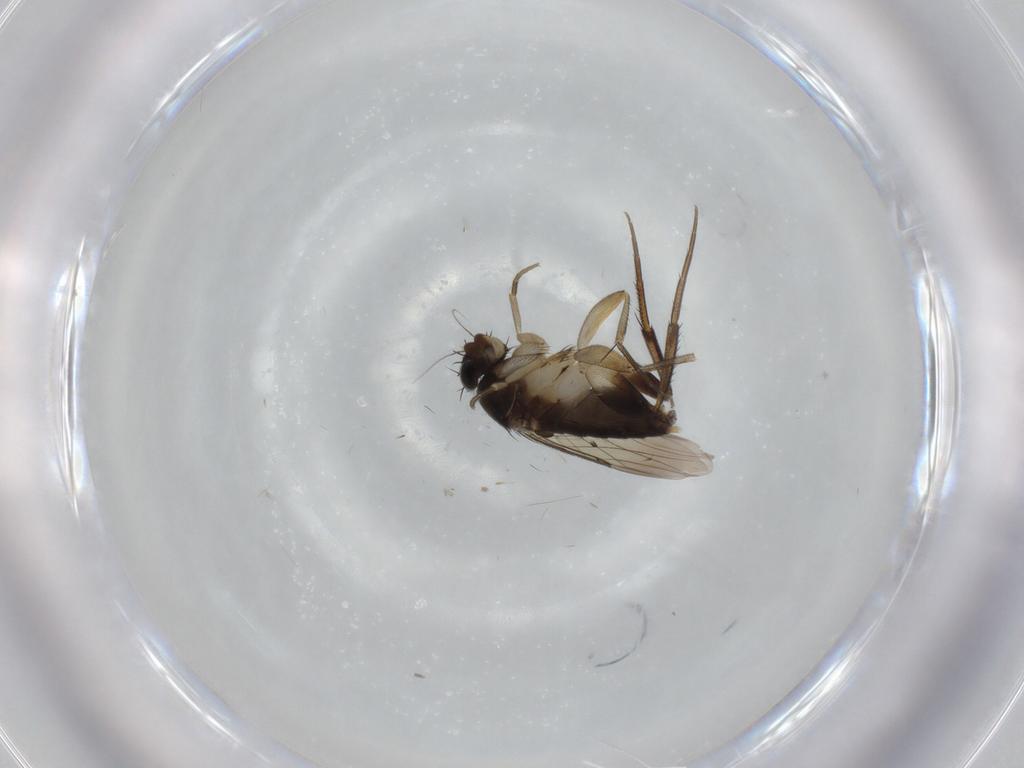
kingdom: Animalia
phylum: Arthropoda
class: Insecta
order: Diptera
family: Phoridae
